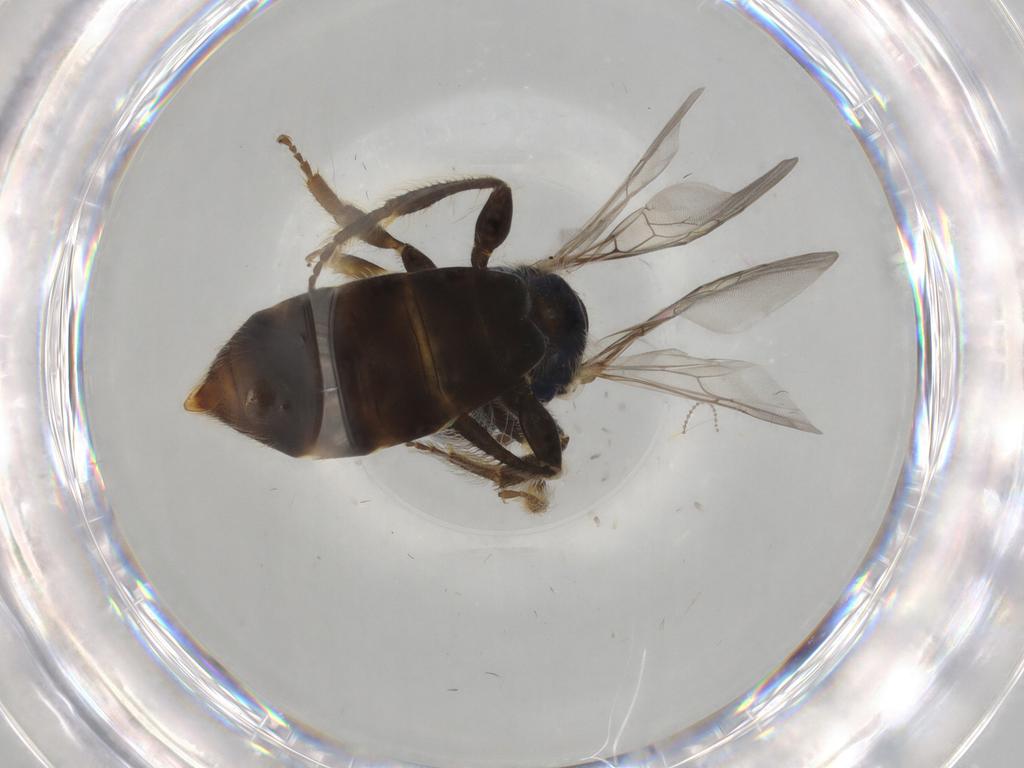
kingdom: Animalia
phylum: Arthropoda
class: Insecta
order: Hymenoptera
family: Andrenidae
